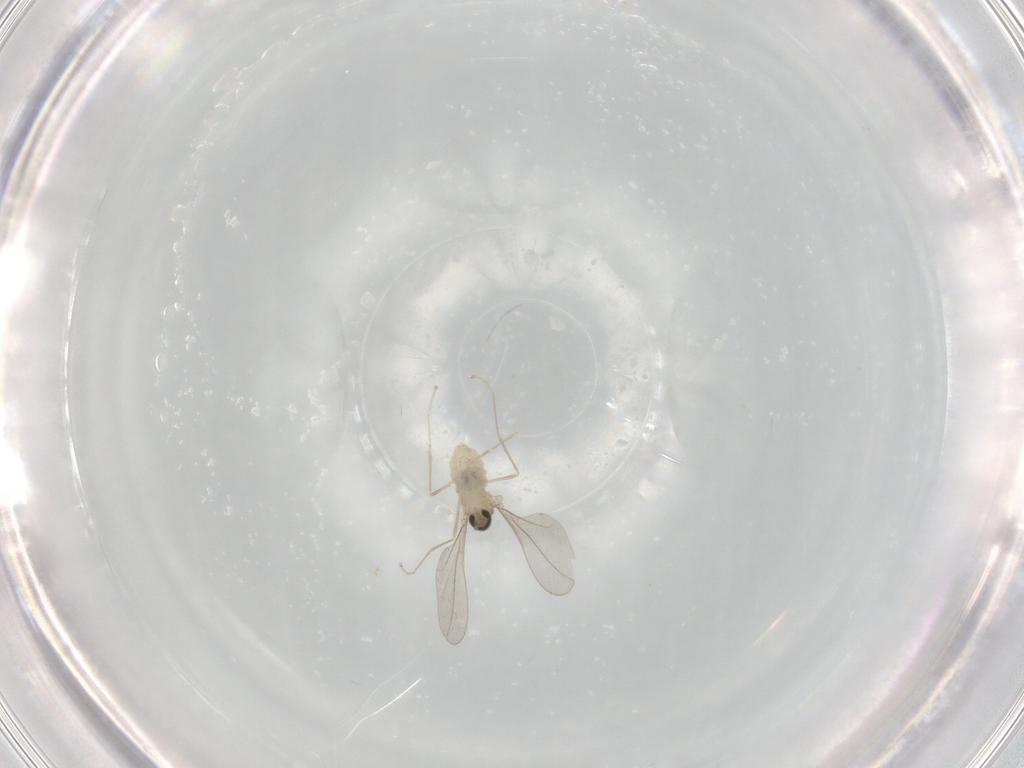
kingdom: Animalia
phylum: Arthropoda
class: Insecta
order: Diptera
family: Cecidomyiidae
